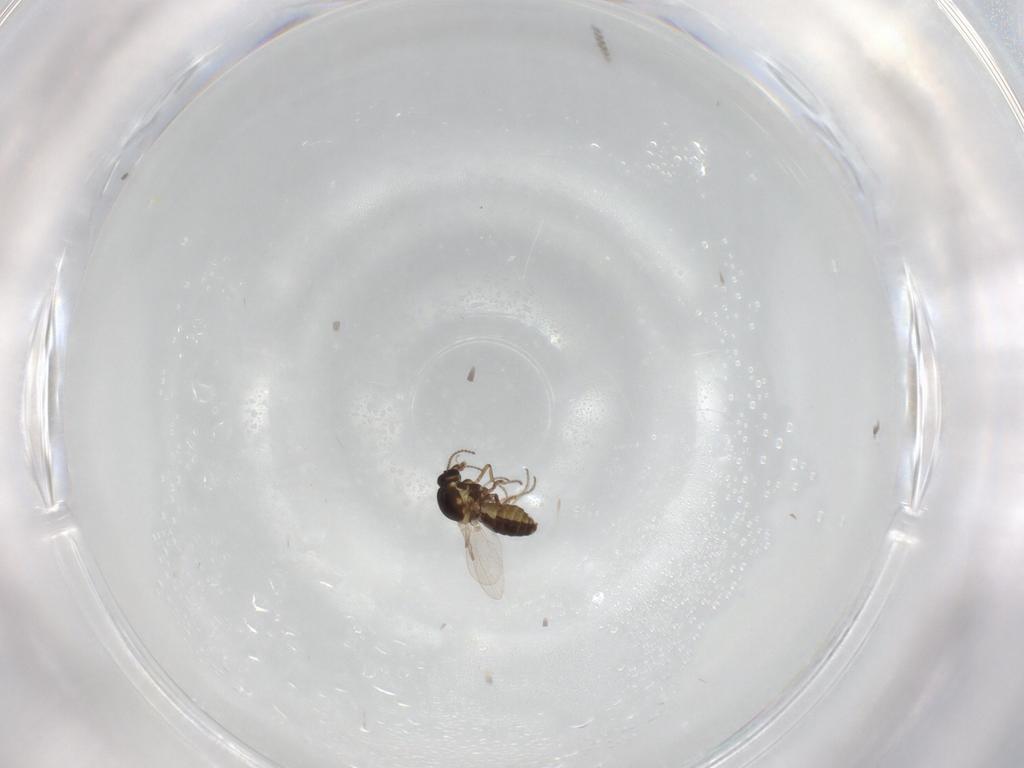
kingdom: Animalia
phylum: Arthropoda
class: Insecta
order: Diptera
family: Ceratopogonidae
